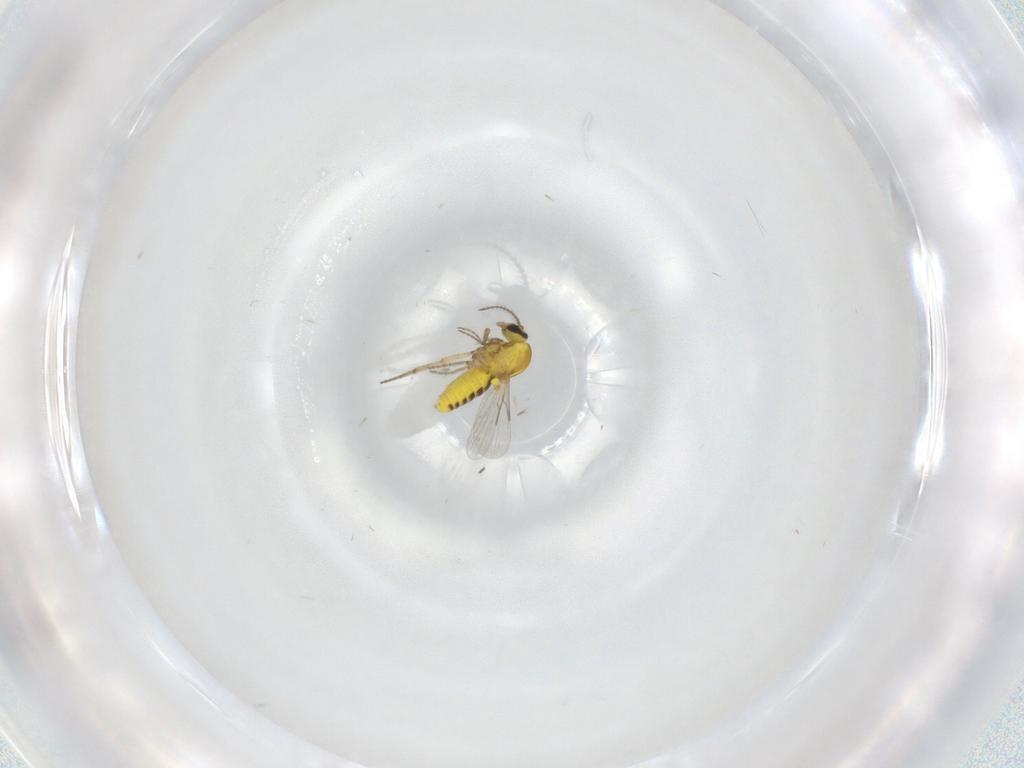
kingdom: Animalia
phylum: Arthropoda
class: Insecta
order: Diptera
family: Ceratopogonidae
